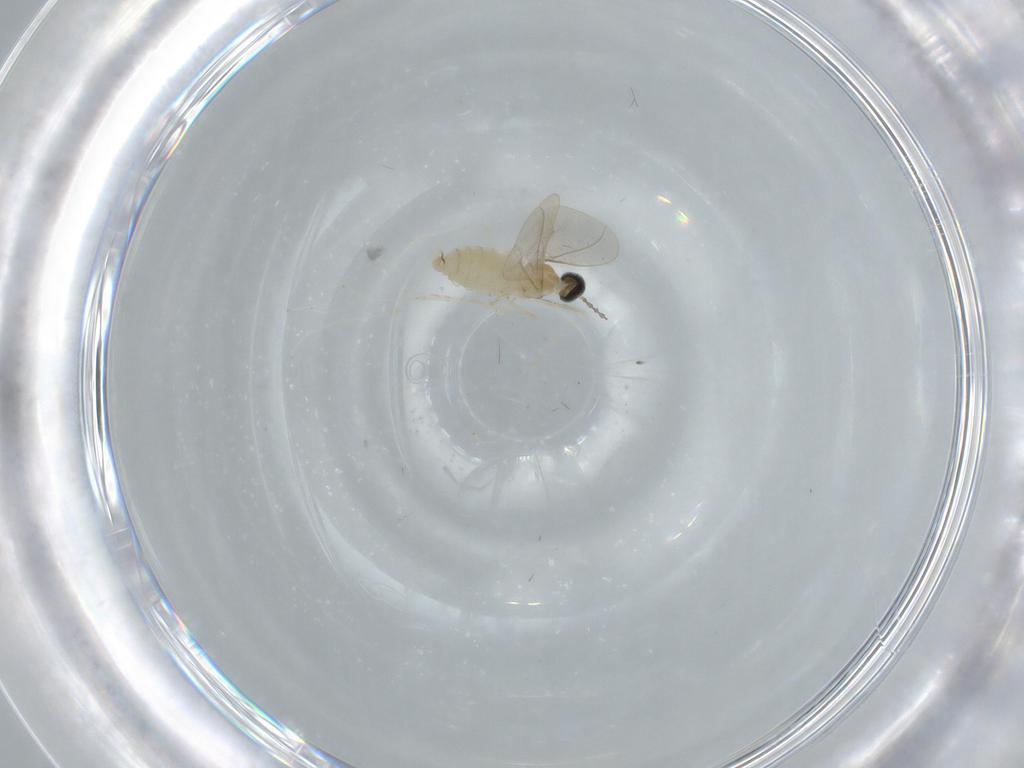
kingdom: Animalia
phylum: Arthropoda
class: Insecta
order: Diptera
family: Cecidomyiidae
